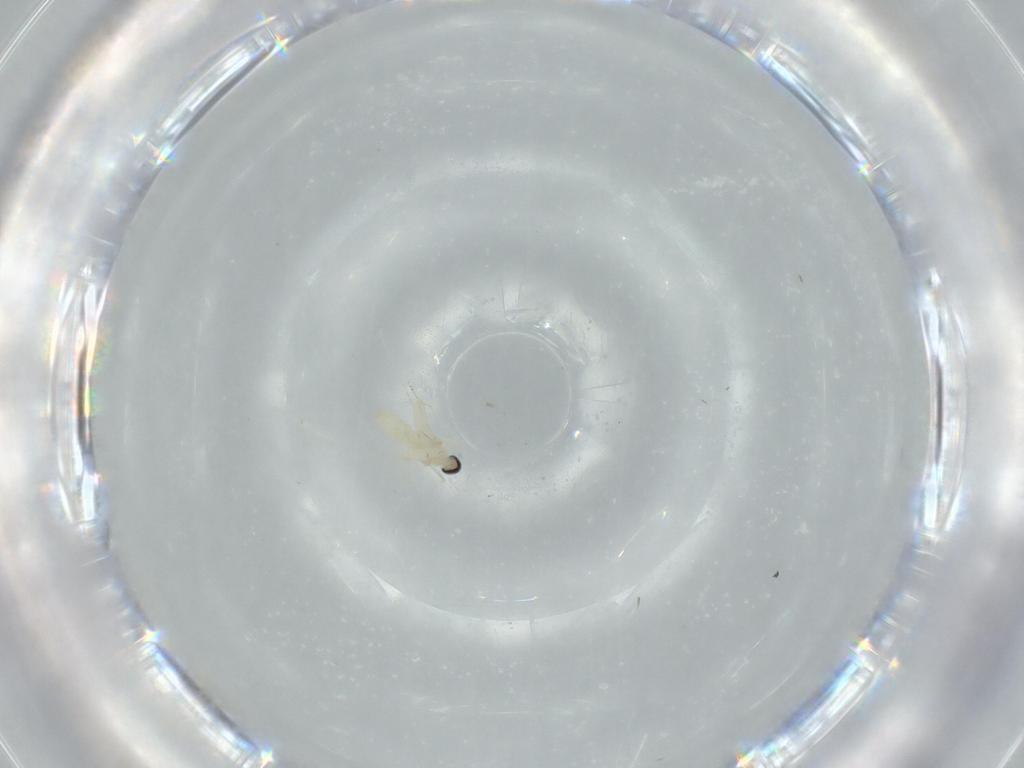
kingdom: Animalia
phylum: Arthropoda
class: Insecta
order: Diptera
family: Cecidomyiidae
